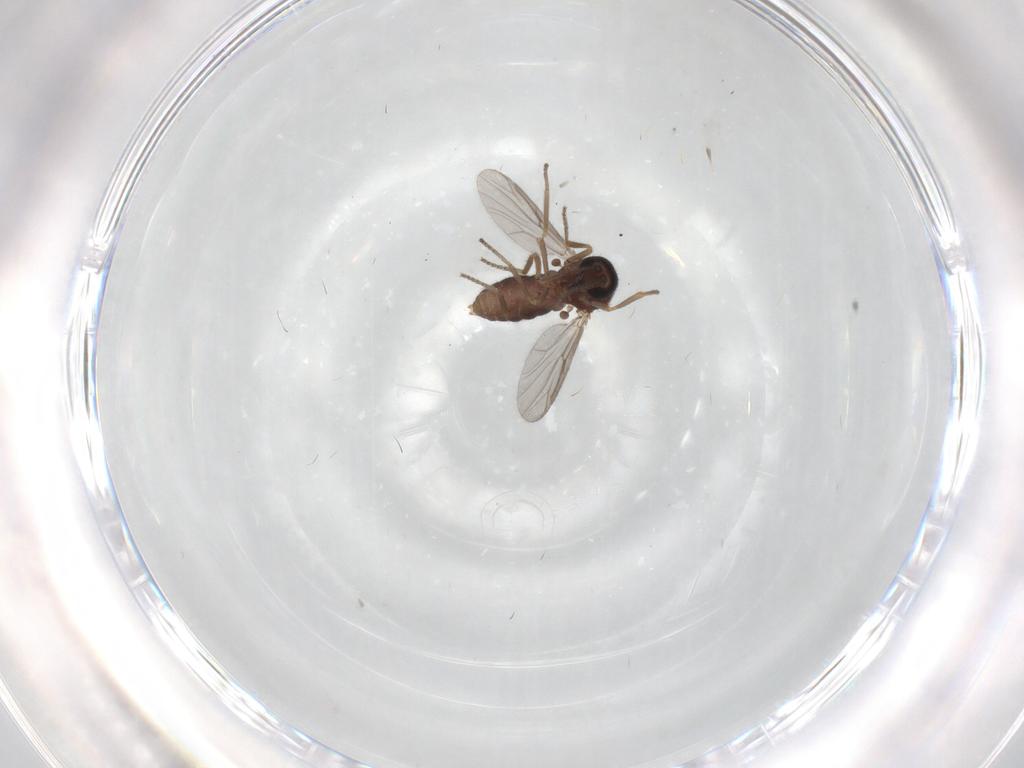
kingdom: Animalia
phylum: Arthropoda
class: Insecta
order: Diptera
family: Ceratopogonidae
